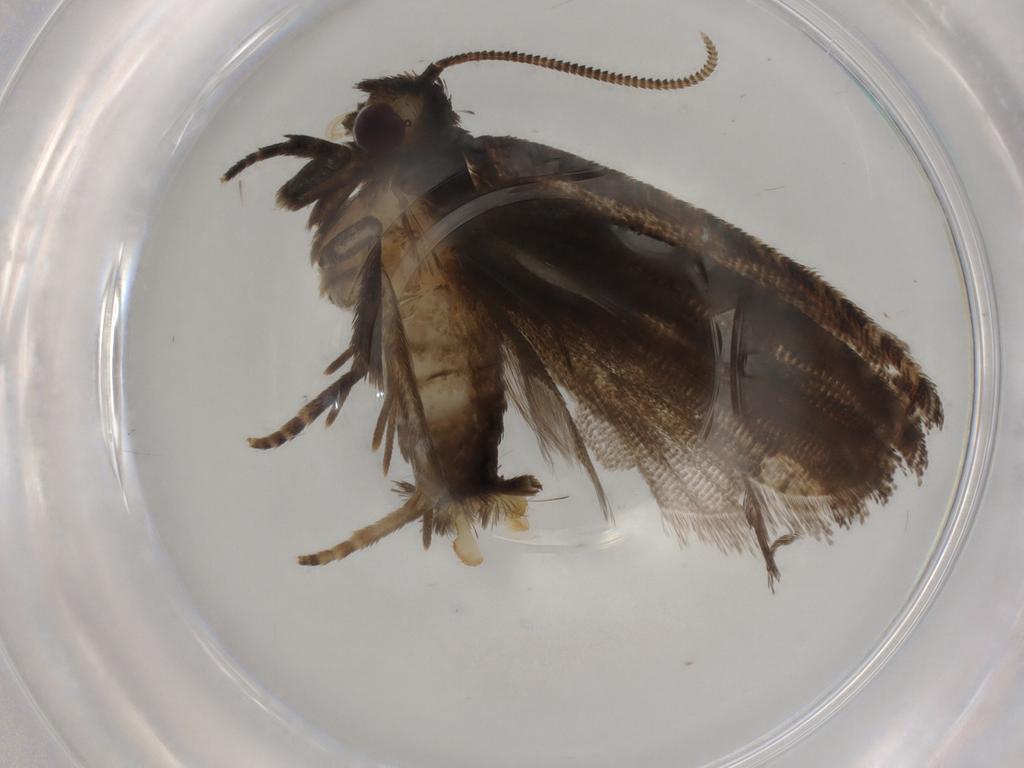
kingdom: Animalia
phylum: Arthropoda
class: Insecta
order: Lepidoptera
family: Tortricidae
